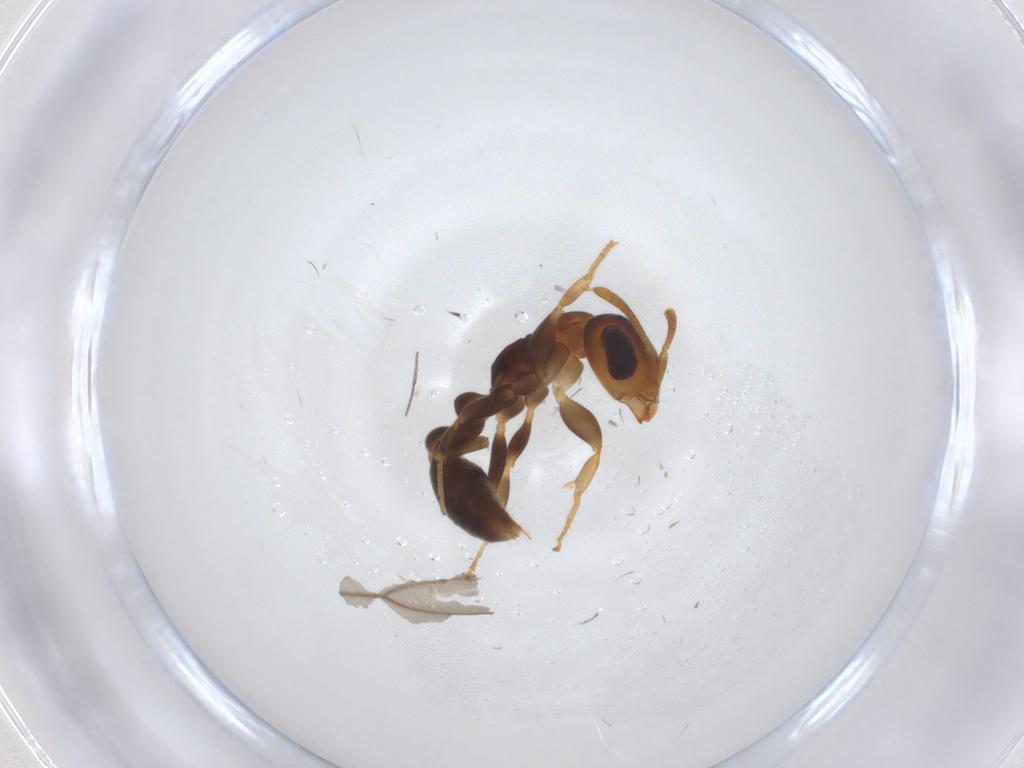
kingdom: Animalia
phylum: Arthropoda
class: Insecta
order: Hymenoptera
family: Formicidae
